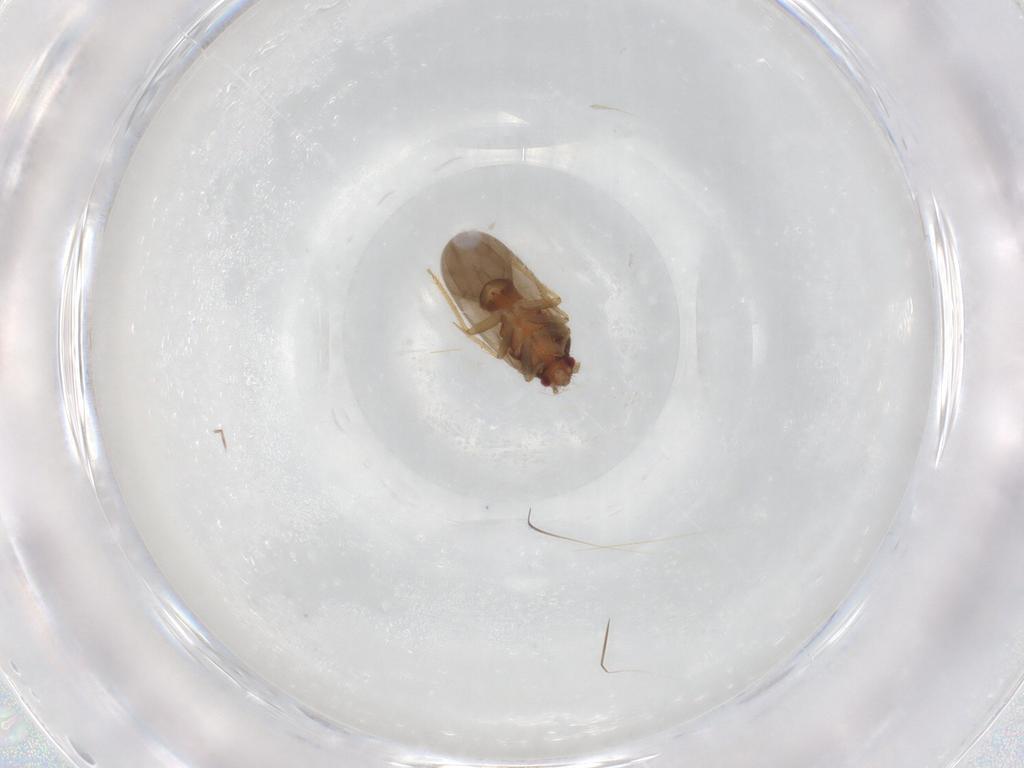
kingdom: Animalia
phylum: Arthropoda
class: Insecta
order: Hemiptera
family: Ceratocombidae
